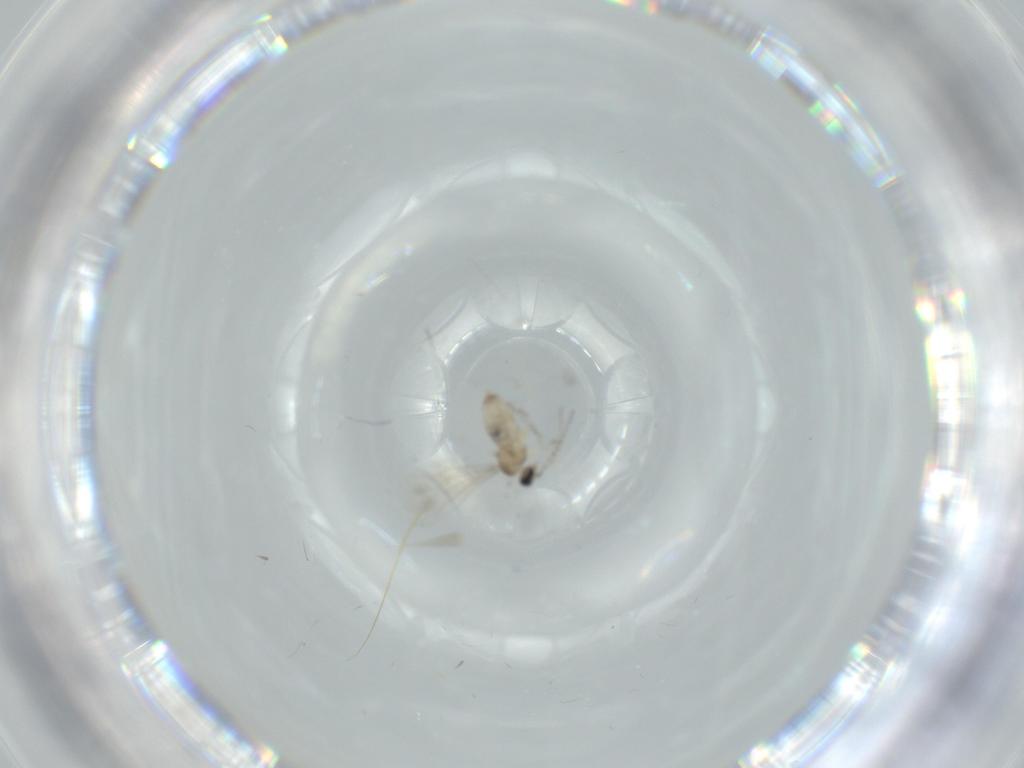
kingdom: Animalia
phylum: Arthropoda
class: Insecta
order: Diptera
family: Cecidomyiidae
